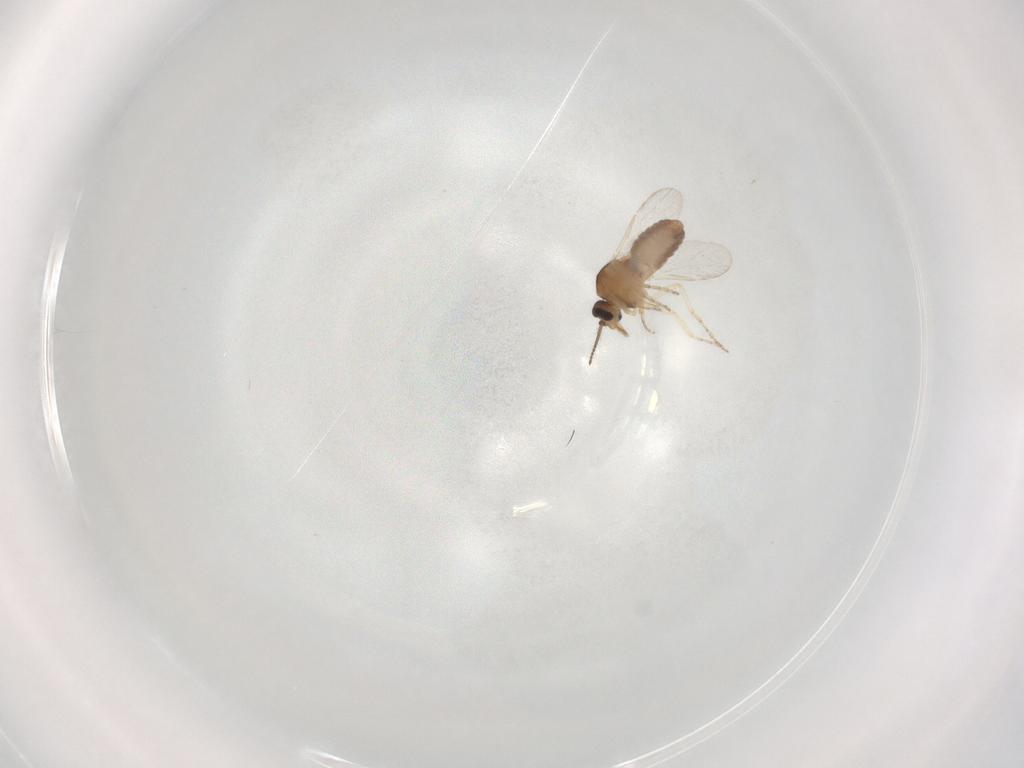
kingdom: Animalia
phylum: Arthropoda
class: Insecta
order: Diptera
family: Ceratopogonidae
